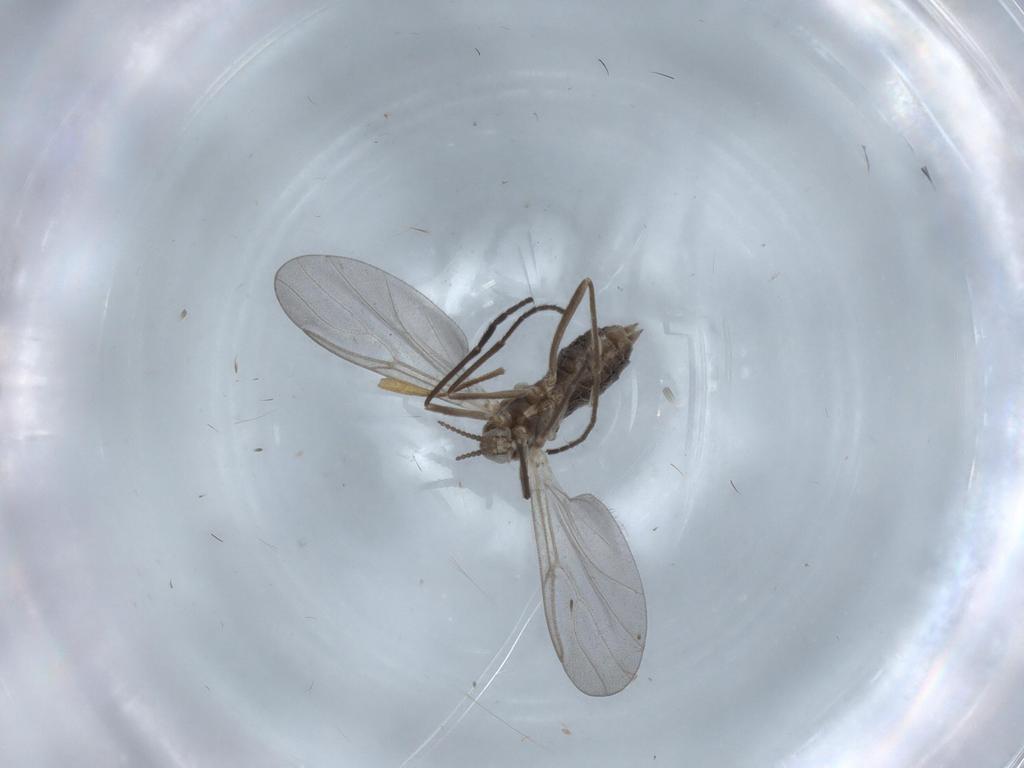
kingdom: Animalia
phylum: Arthropoda
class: Insecta
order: Diptera
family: Cecidomyiidae
